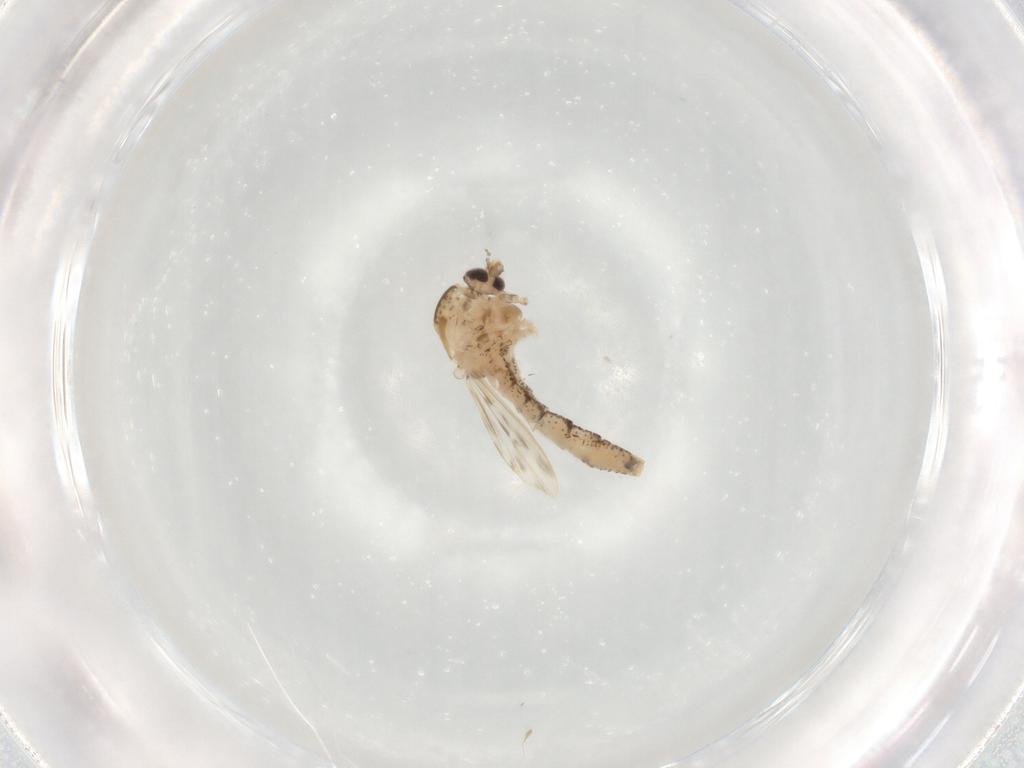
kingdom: Animalia
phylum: Arthropoda
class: Insecta
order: Diptera
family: Chaoboridae
